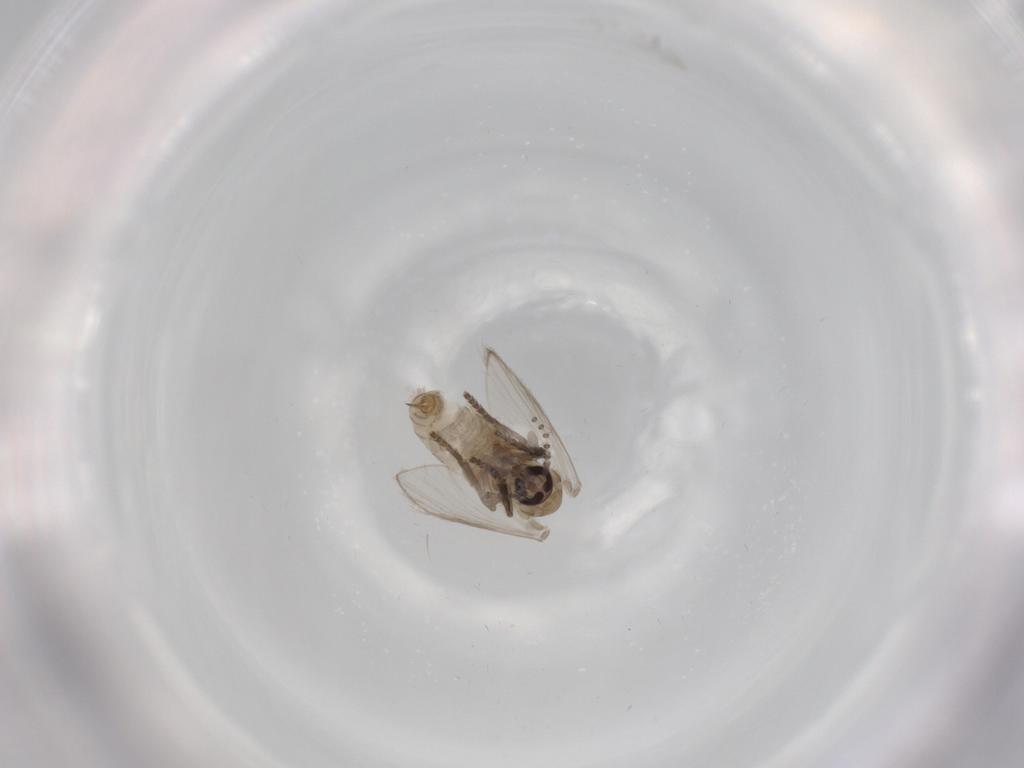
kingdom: Animalia
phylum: Arthropoda
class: Insecta
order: Diptera
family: Psychodidae
